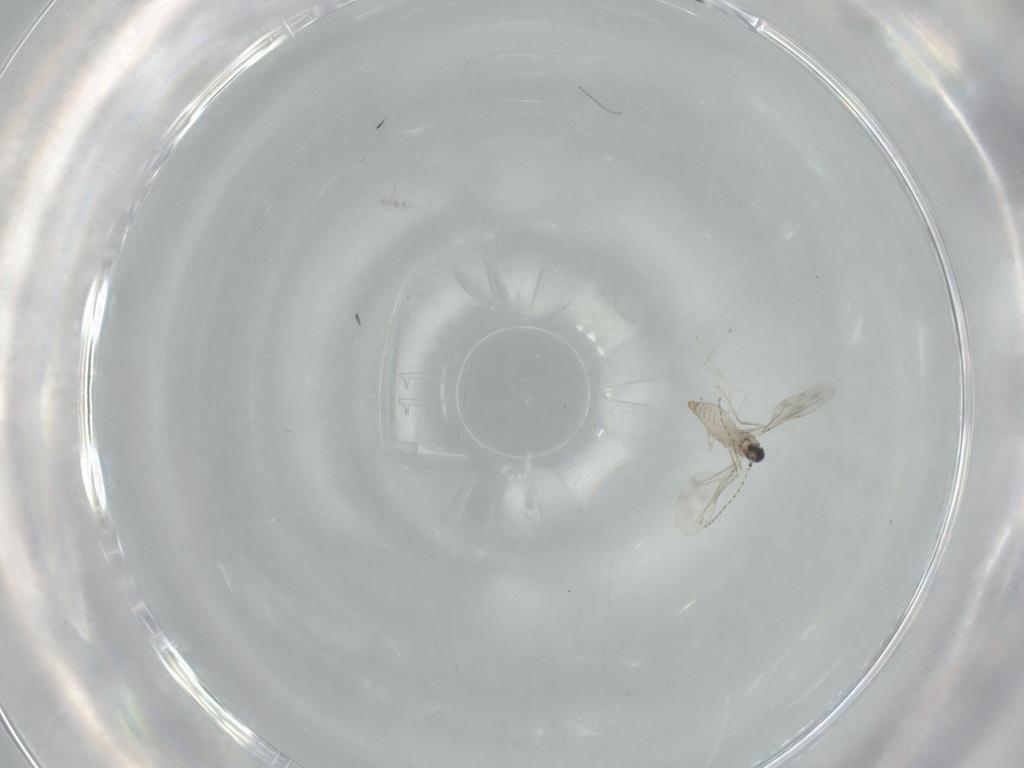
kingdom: Animalia
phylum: Arthropoda
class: Insecta
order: Diptera
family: Cecidomyiidae
